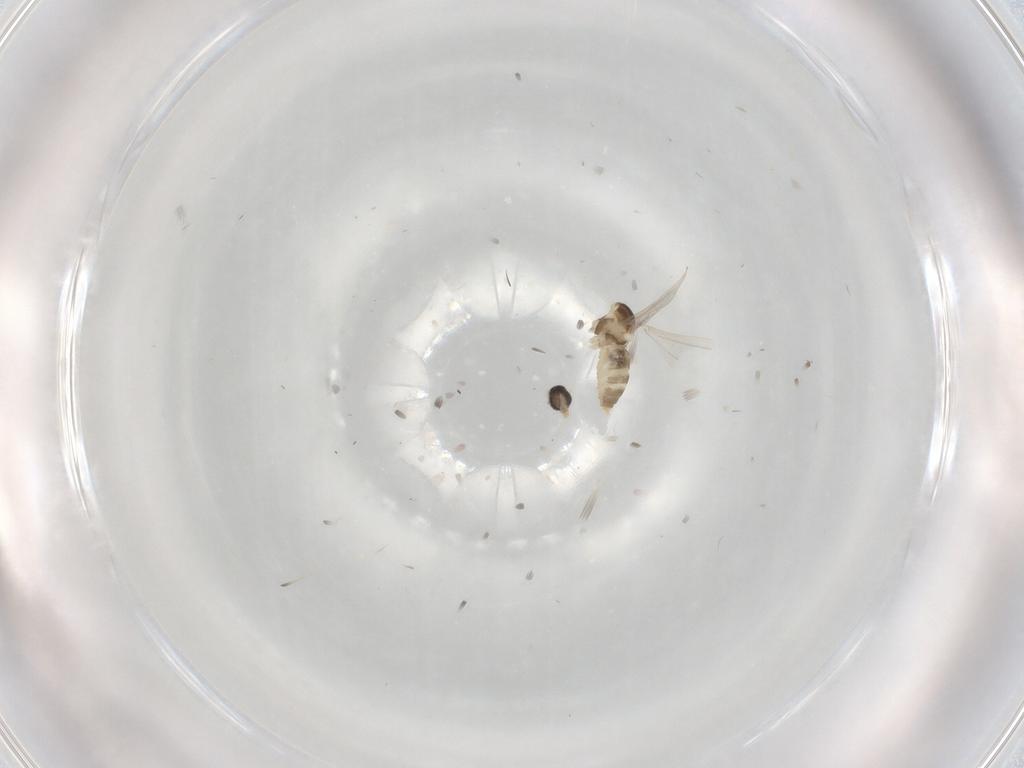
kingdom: Animalia
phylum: Arthropoda
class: Insecta
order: Diptera
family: Cecidomyiidae
